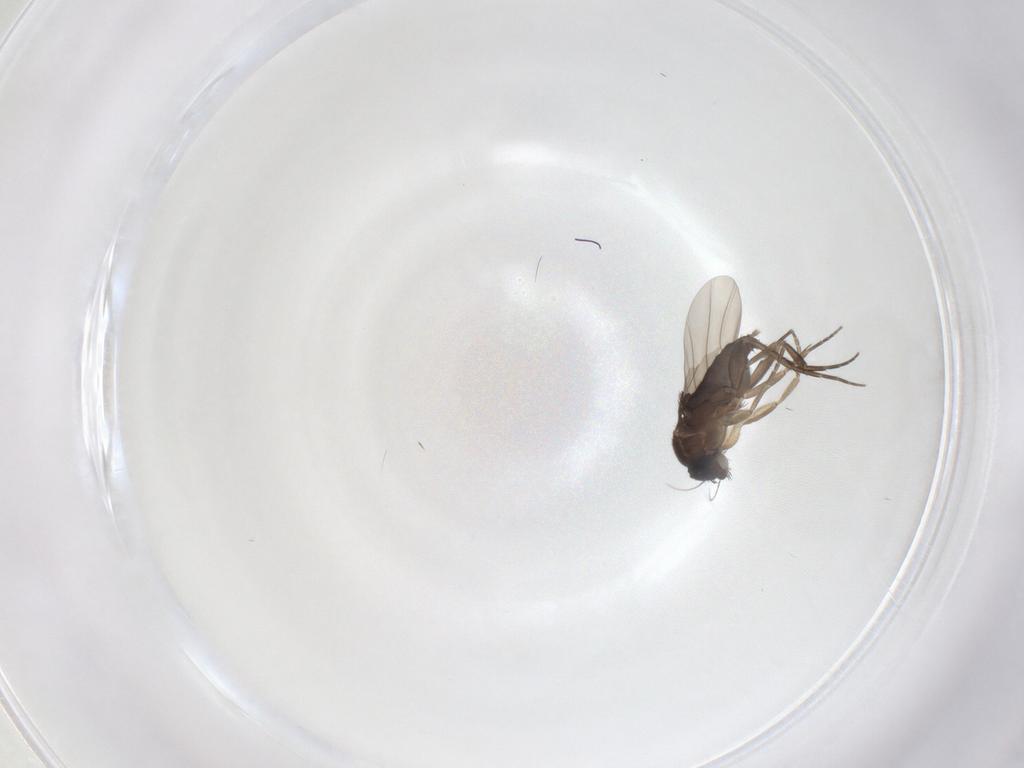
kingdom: Animalia
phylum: Arthropoda
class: Insecta
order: Diptera
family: Phoridae
